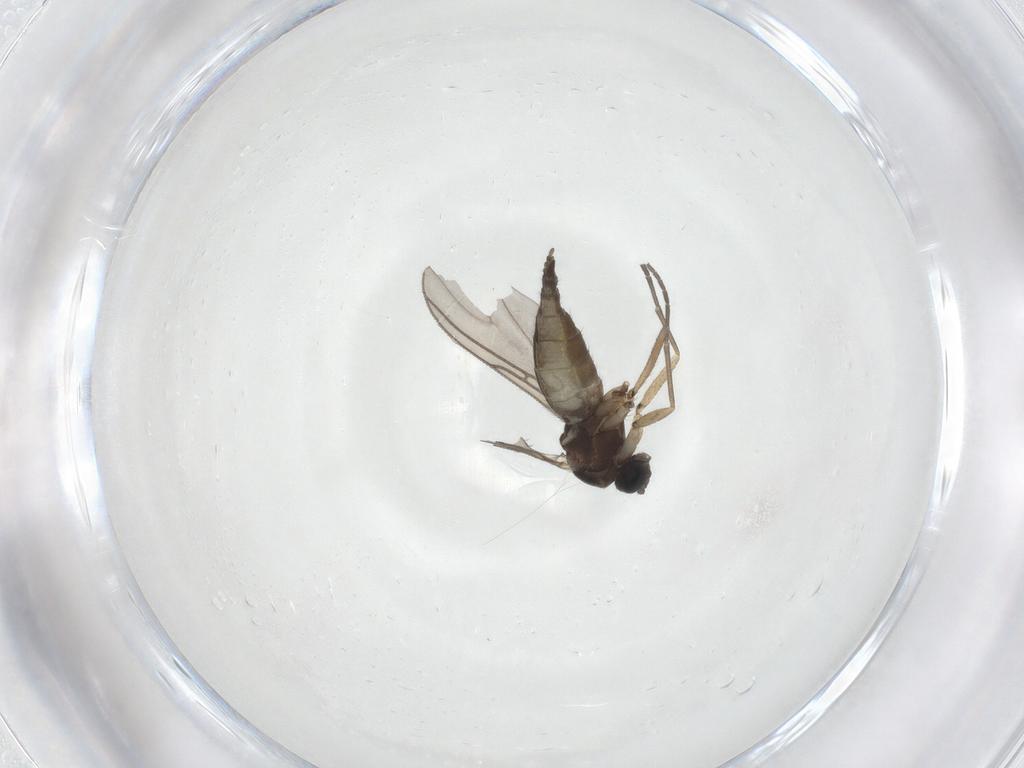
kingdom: Animalia
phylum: Arthropoda
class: Insecta
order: Diptera
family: Sciaridae
